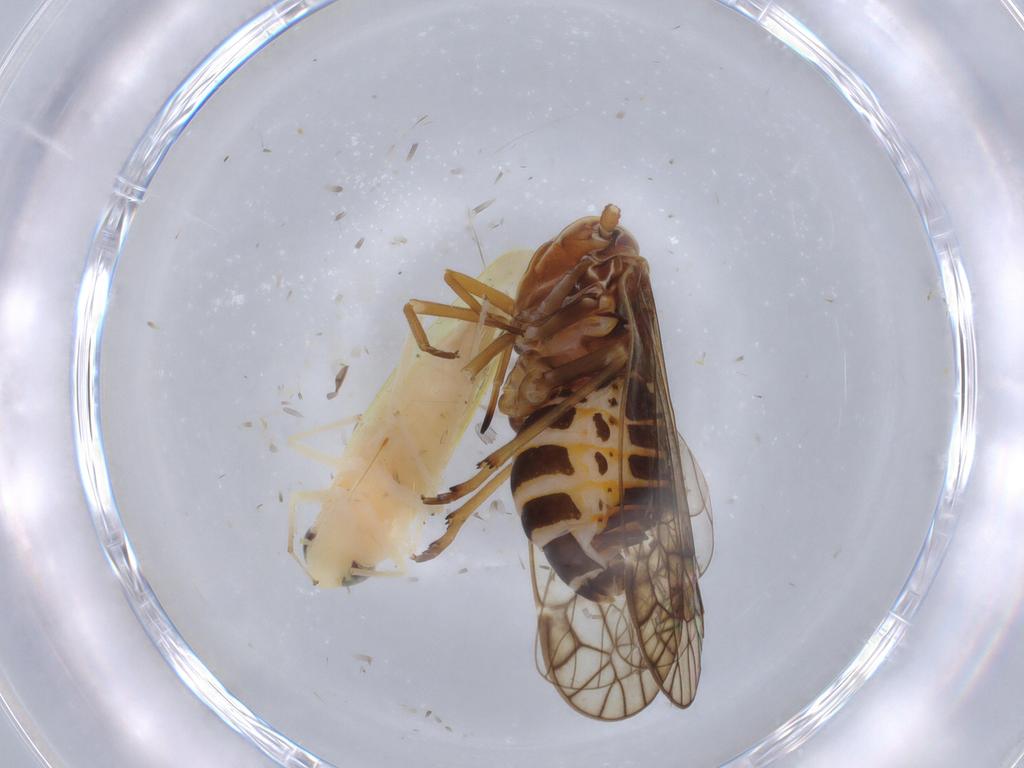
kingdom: Animalia
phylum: Arthropoda
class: Insecta
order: Hemiptera
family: Kinnaridae
